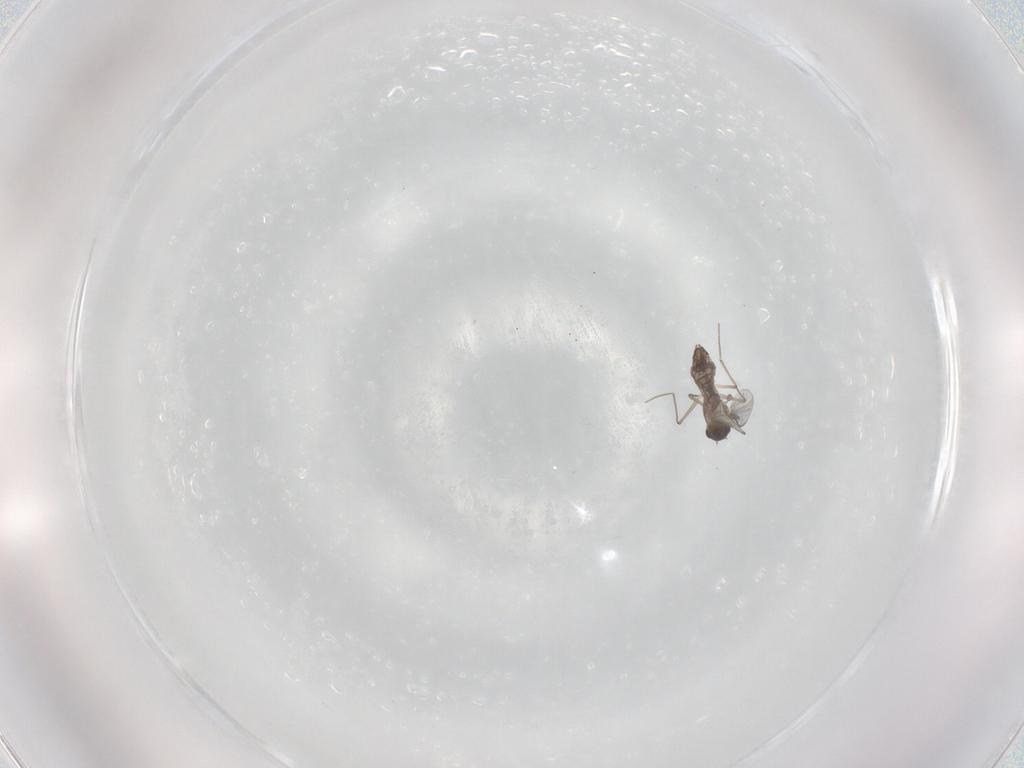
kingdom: Animalia
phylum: Arthropoda
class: Insecta
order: Diptera
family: Chironomidae
